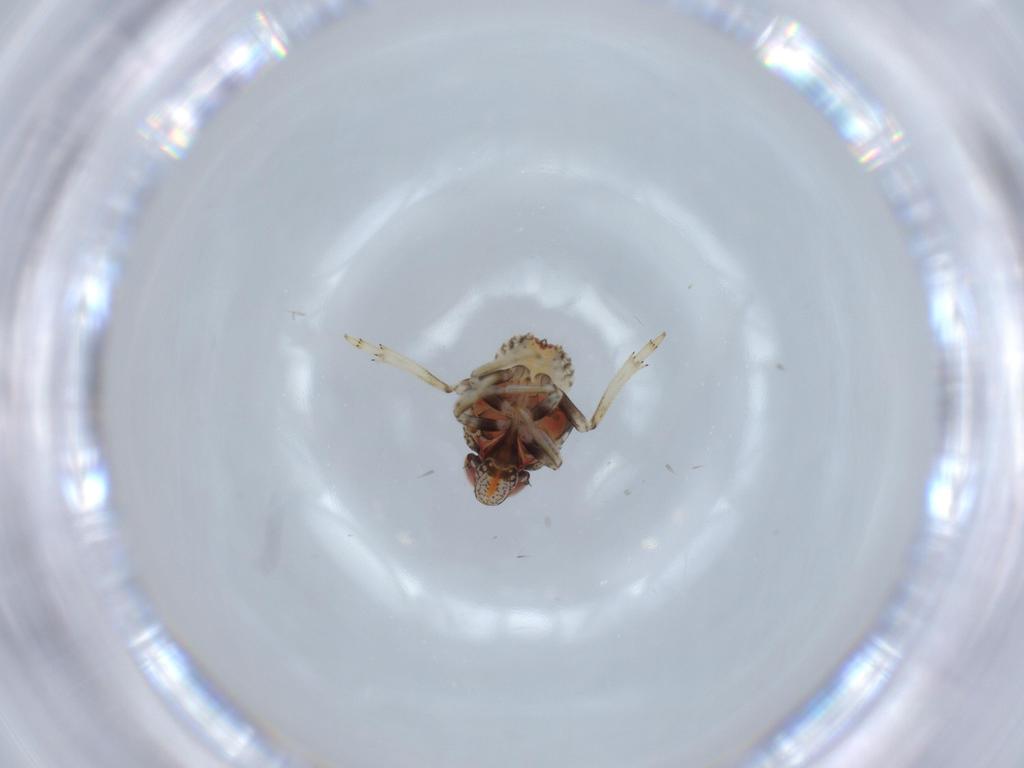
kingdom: Animalia
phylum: Arthropoda
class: Insecta
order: Hemiptera
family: Issidae
